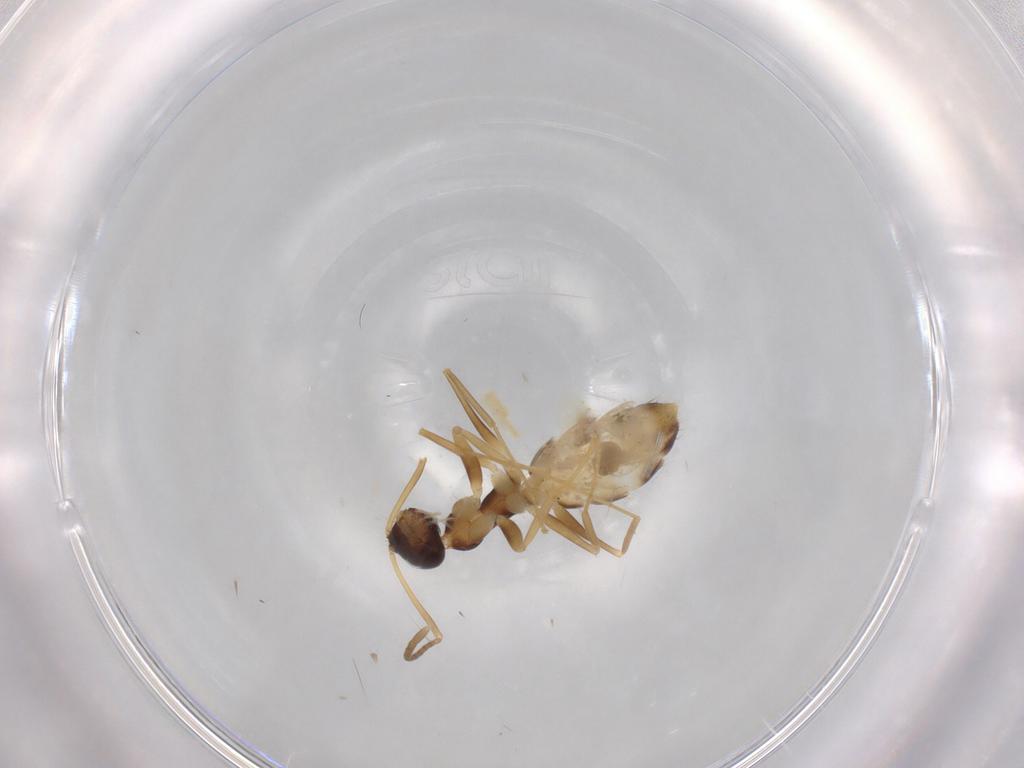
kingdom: Animalia
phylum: Arthropoda
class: Insecta
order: Hymenoptera
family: Formicidae
